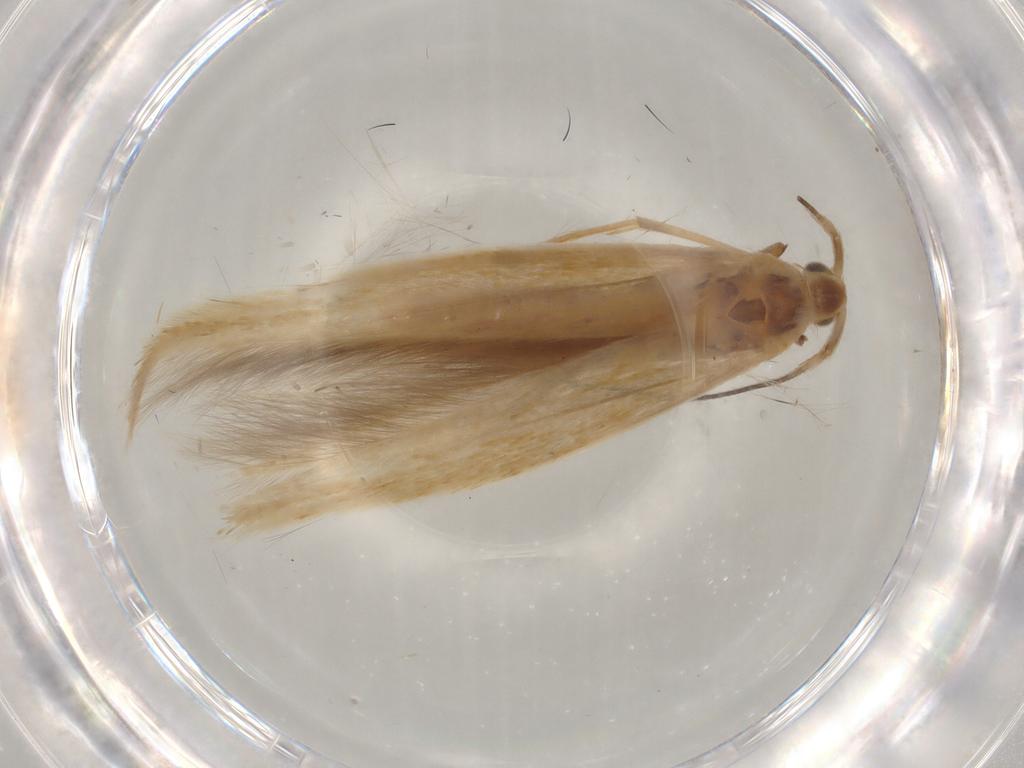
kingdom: Animalia
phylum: Arthropoda
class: Insecta
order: Lepidoptera
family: Coleophoridae
